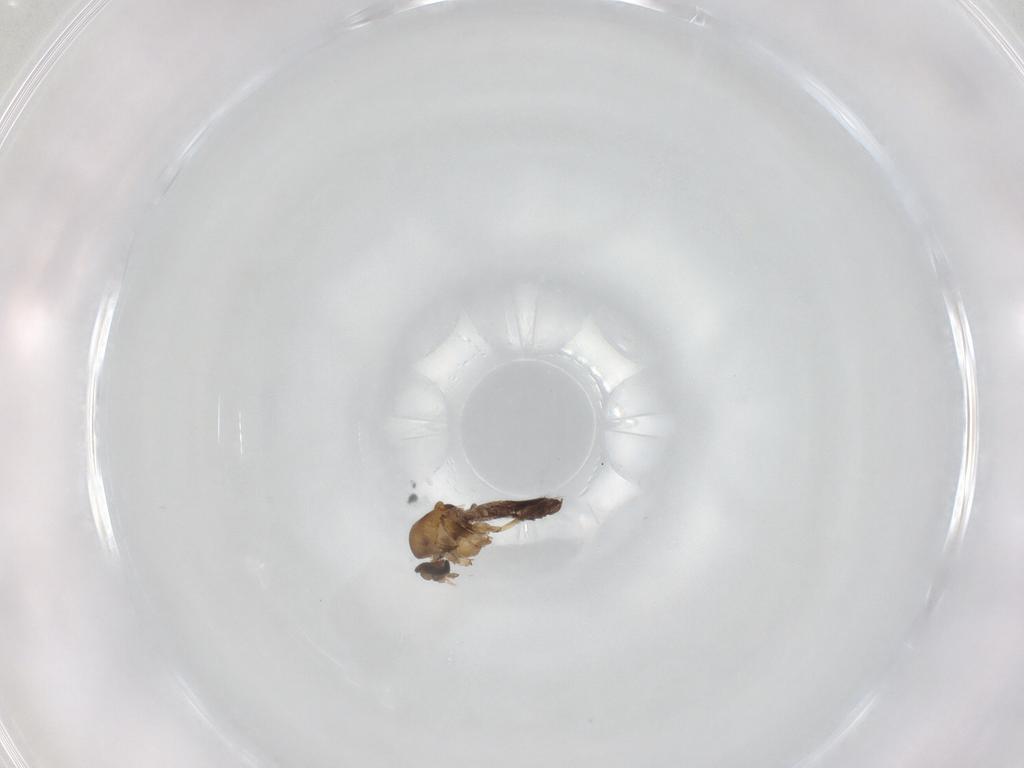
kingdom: Animalia
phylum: Arthropoda
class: Insecta
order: Diptera
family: Ceratopogonidae
